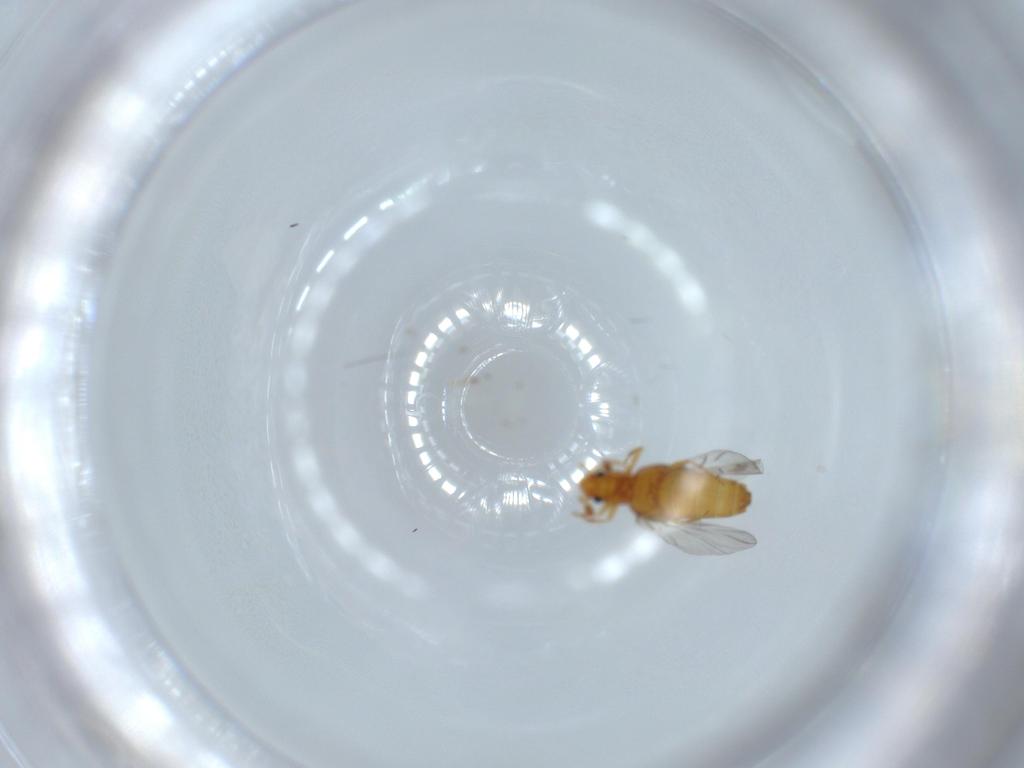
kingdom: Animalia
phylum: Arthropoda
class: Insecta
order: Coleoptera
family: Staphylinidae
